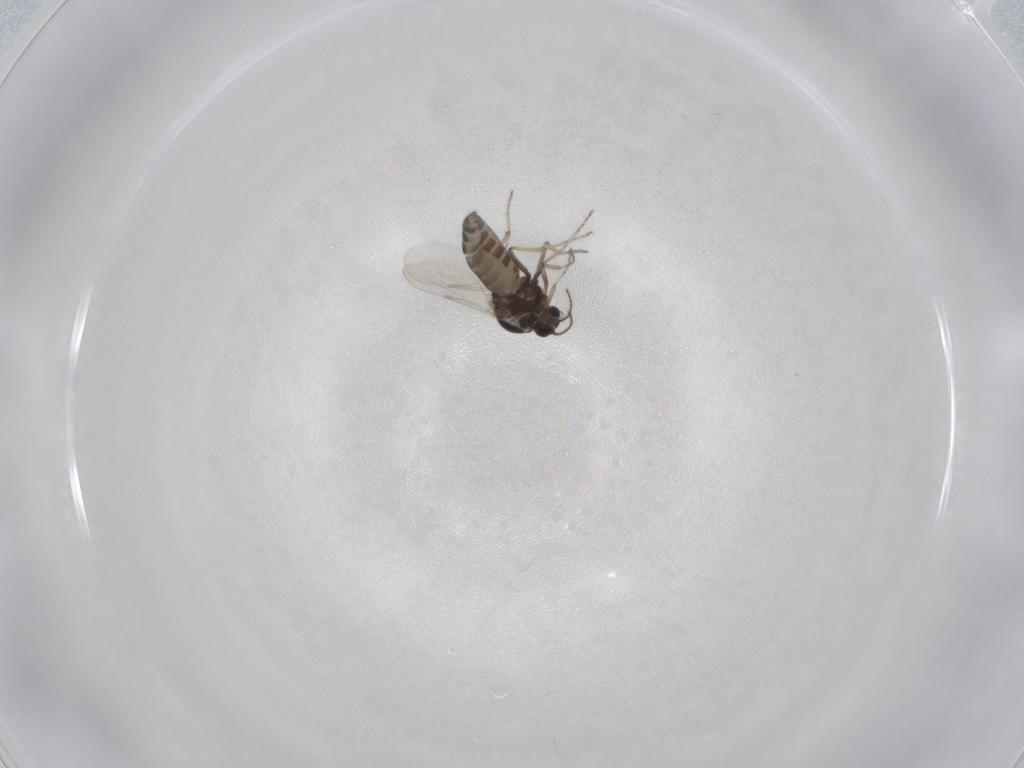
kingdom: Animalia
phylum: Arthropoda
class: Insecta
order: Diptera
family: Ceratopogonidae
